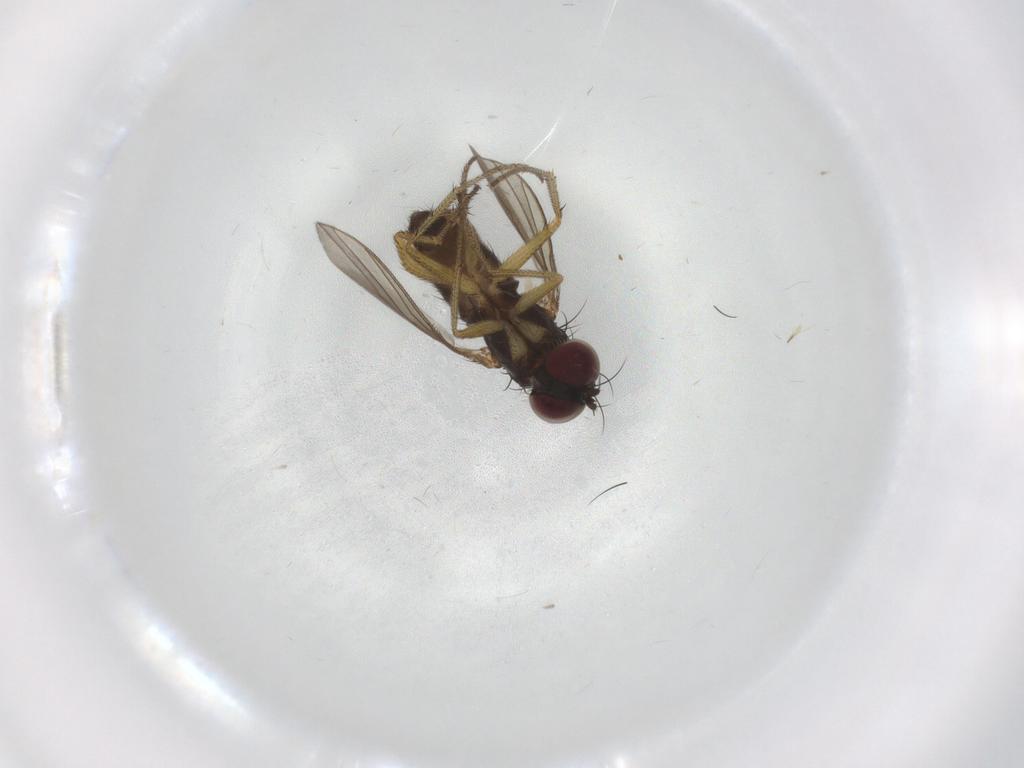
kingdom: Animalia
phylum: Arthropoda
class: Insecta
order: Diptera
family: Dolichopodidae
